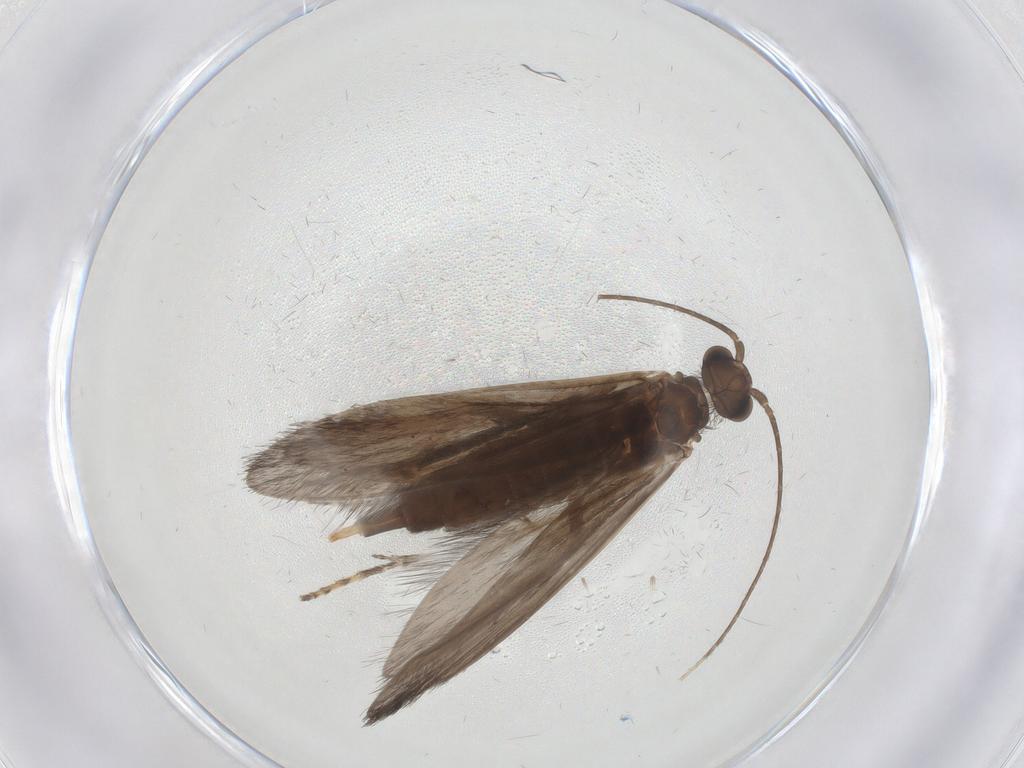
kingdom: Animalia
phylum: Arthropoda
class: Insecta
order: Trichoptera
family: Xiphocentronidae
